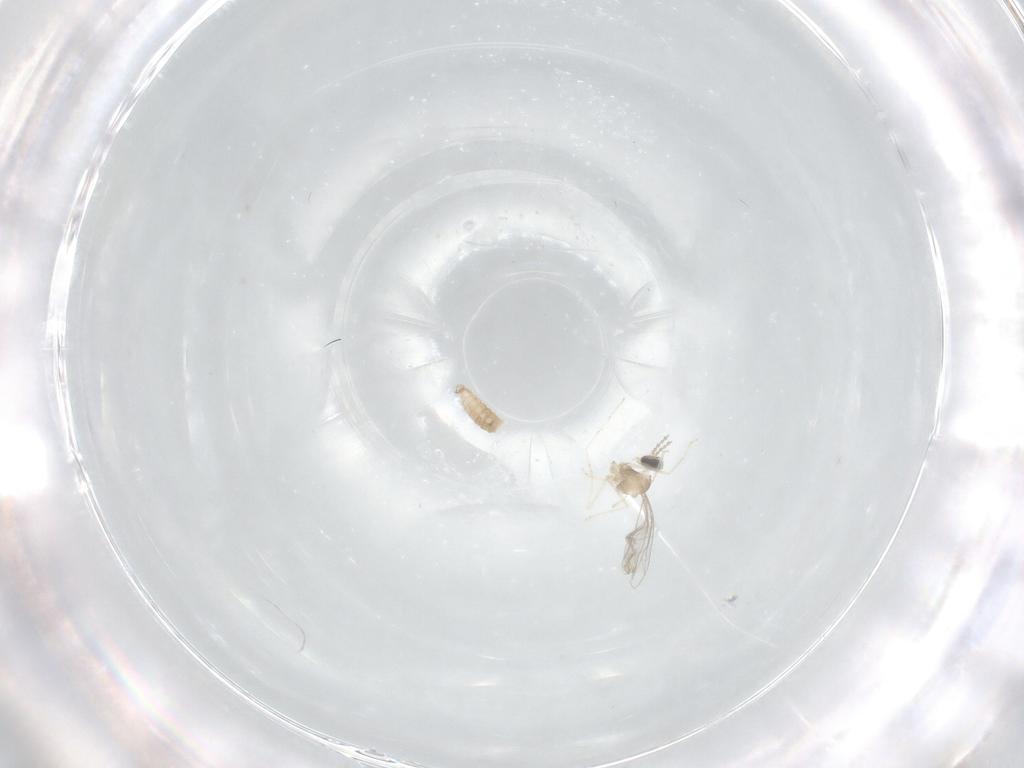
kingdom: Animalia
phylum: Arthropoda
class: Insecta
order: Diptera
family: Cecidomyiidae
